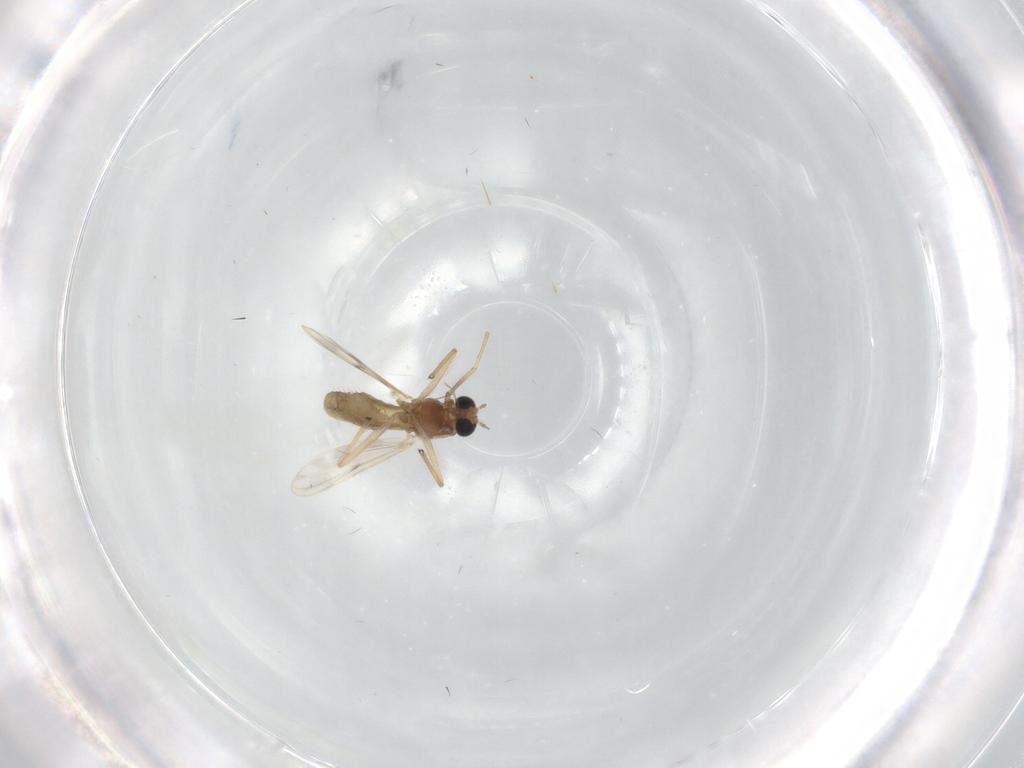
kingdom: Animalia
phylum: Arthropoda
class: Insecta
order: Diptera
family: Chironomidae
